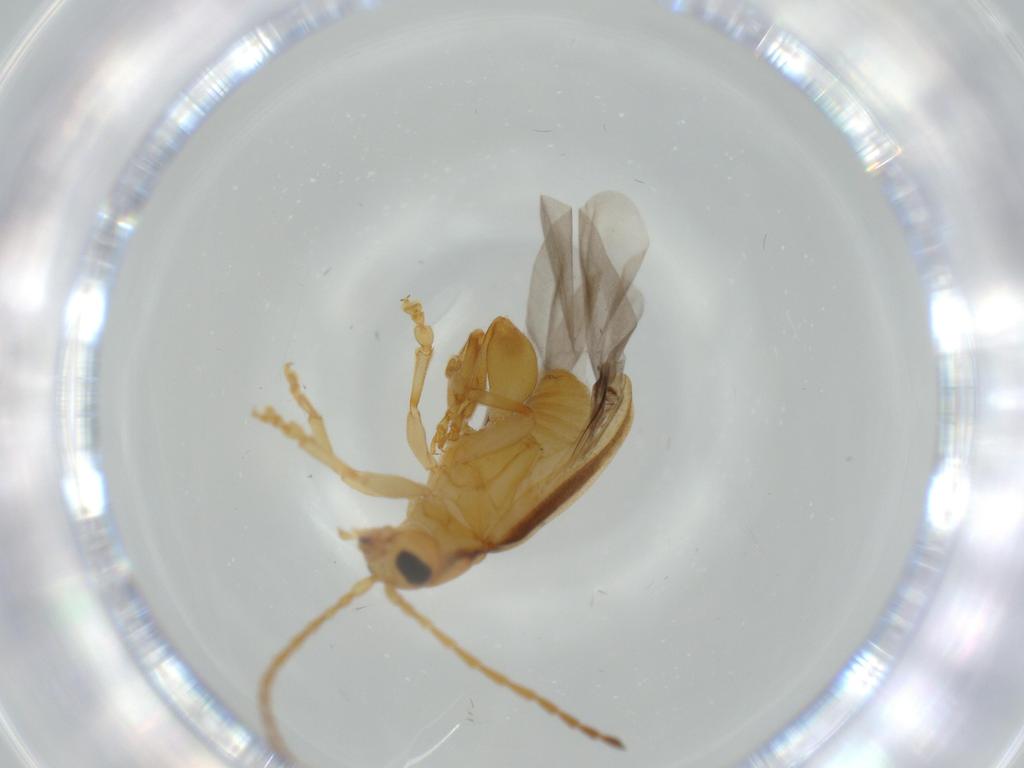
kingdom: Animalia
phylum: Arthropoda
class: Insecta
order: Coleoptera
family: Chrysomelidae
